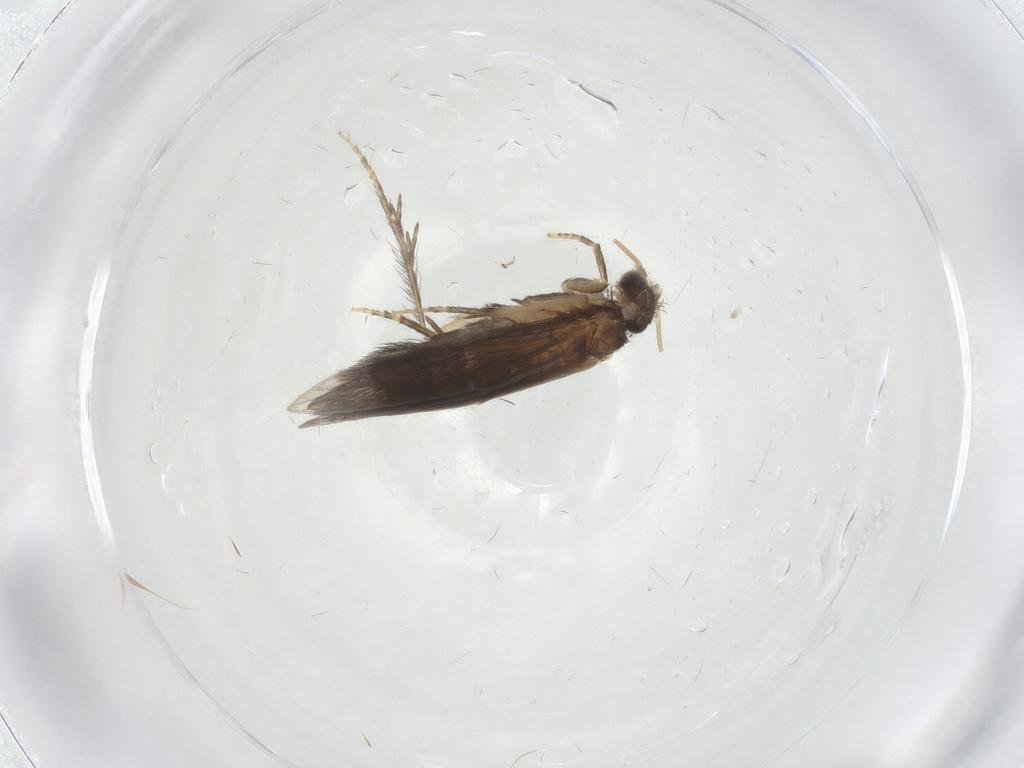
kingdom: Animalia
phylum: Arthropoda
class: Insecta
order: Trichoptera
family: Hydroptilidae
